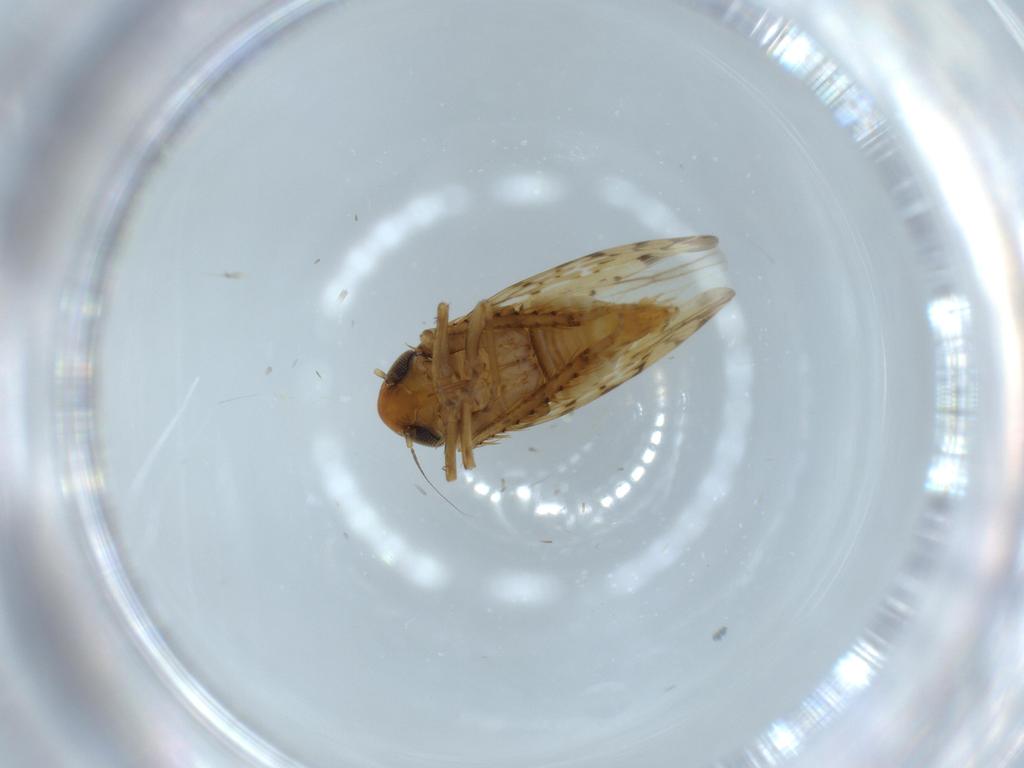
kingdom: Animalia
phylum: Arthropoda
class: Insecta
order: Hemiptera
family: Cicadellidae
